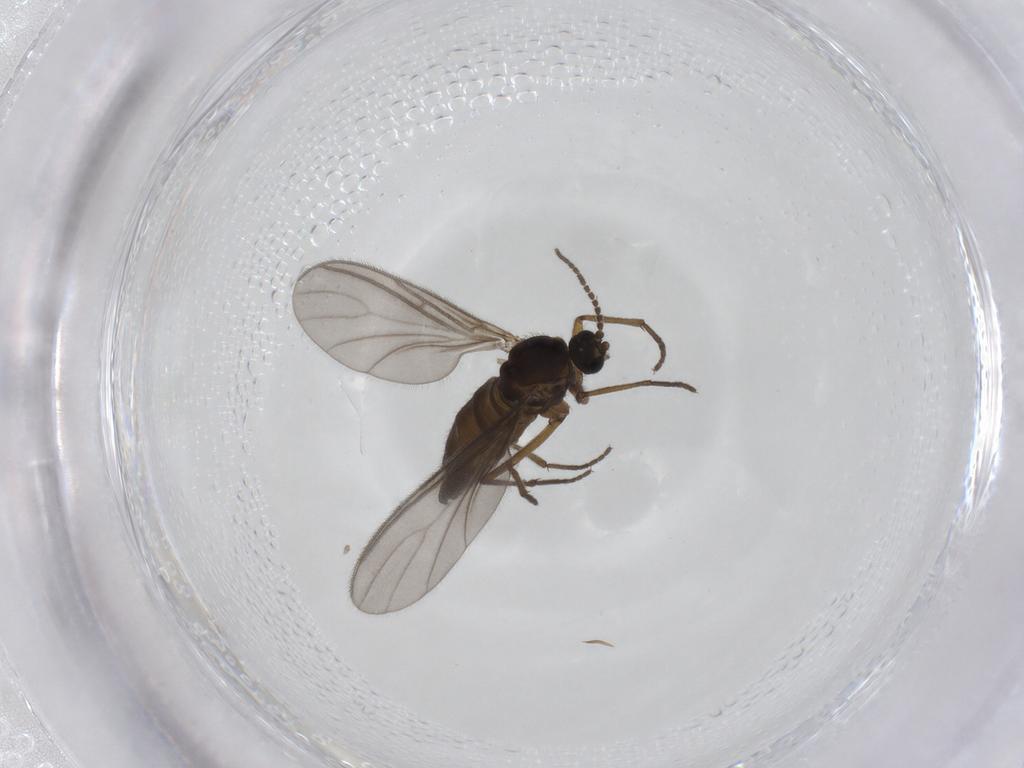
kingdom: Animalia
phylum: Arthropoda
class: Insecta
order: Diptera
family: Sciaridae
